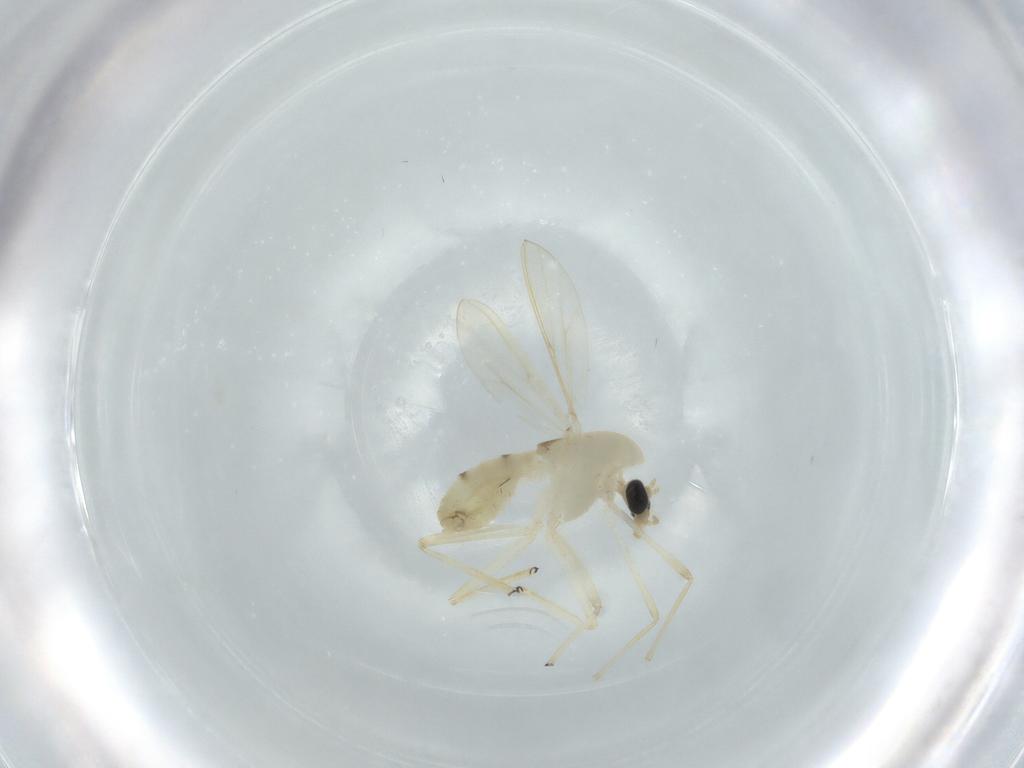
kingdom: Animalia
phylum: Arthropoda
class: Insecta
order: Diptera
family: Chironomidae
